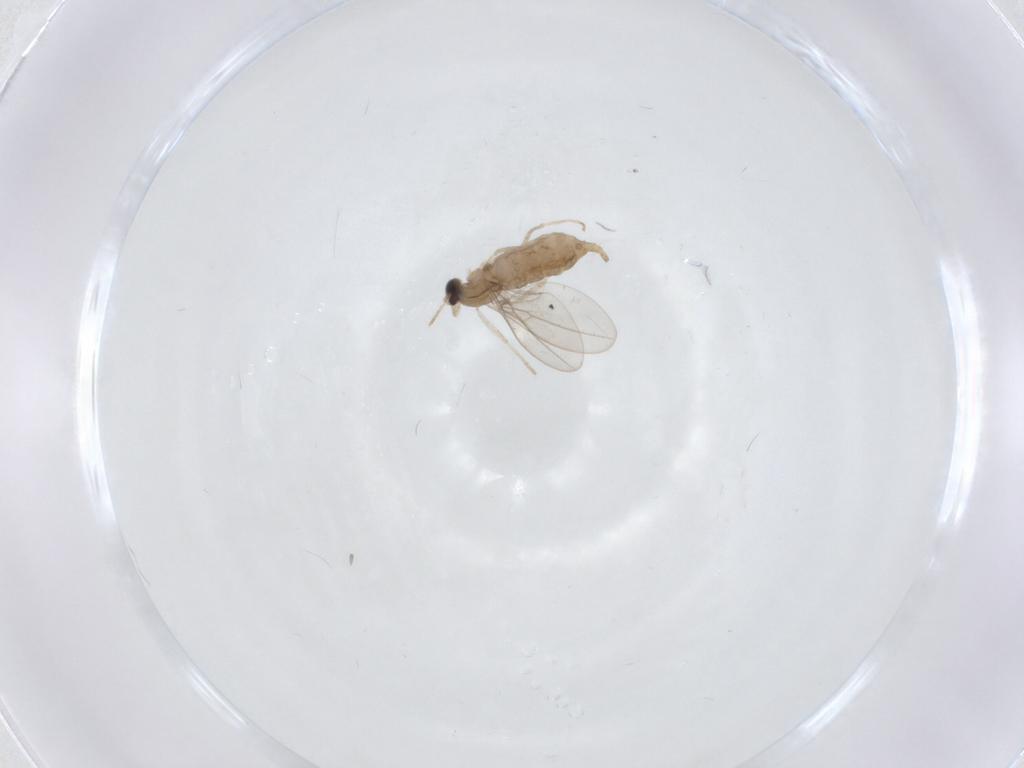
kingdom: Animalia
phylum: Arthropoda
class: Insecta
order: Diptera
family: Cecidomyiidae
